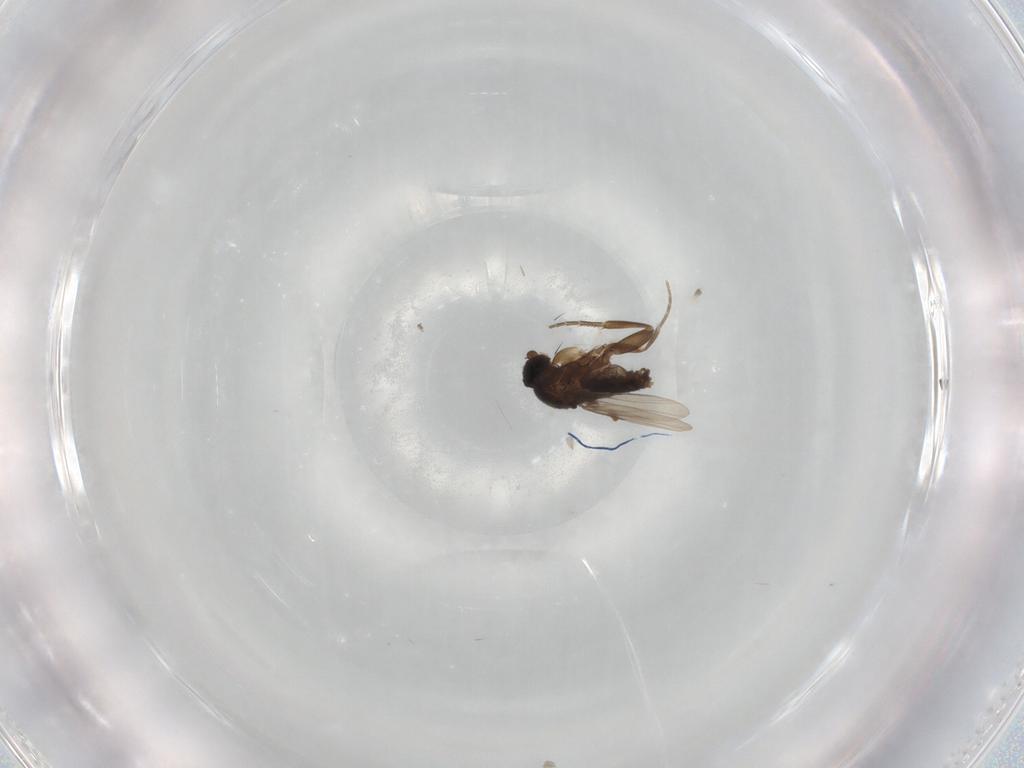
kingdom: Animalia
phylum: Arthropoda
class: Insecta
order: Diptera
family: Phoridae
